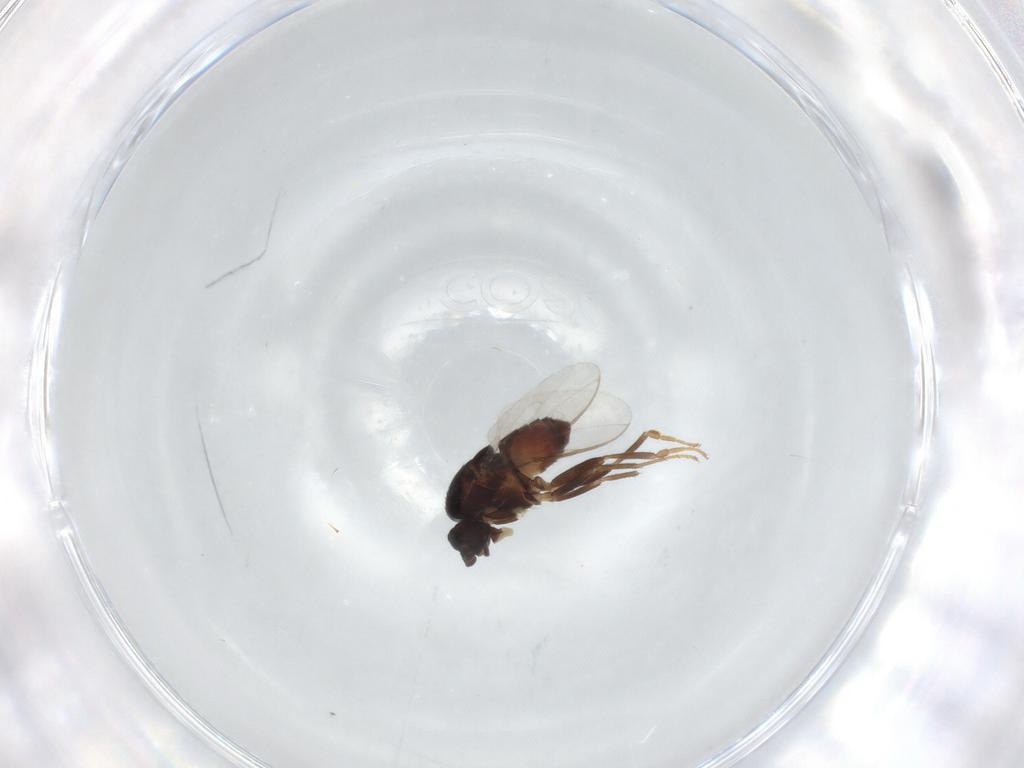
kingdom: Animalia
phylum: Arthropoda
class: Insecta
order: Diptera
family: Sphaeroceridae
